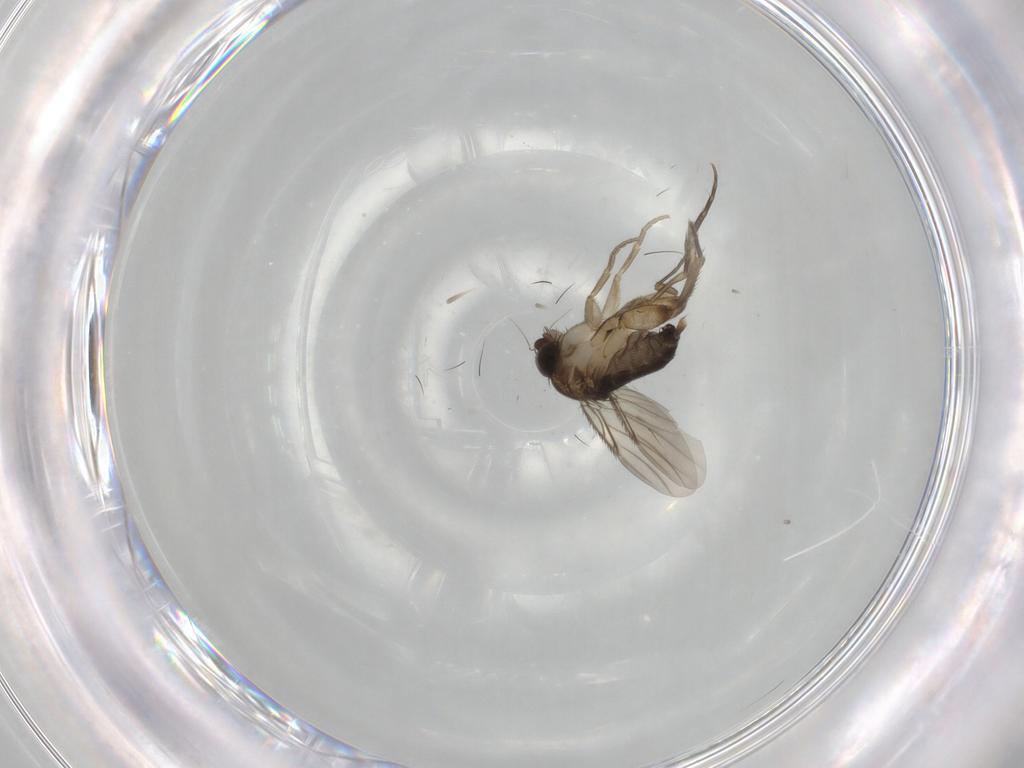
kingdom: Animalia
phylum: Arthropoda
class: Insecta
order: Diptera
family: Phoridae
